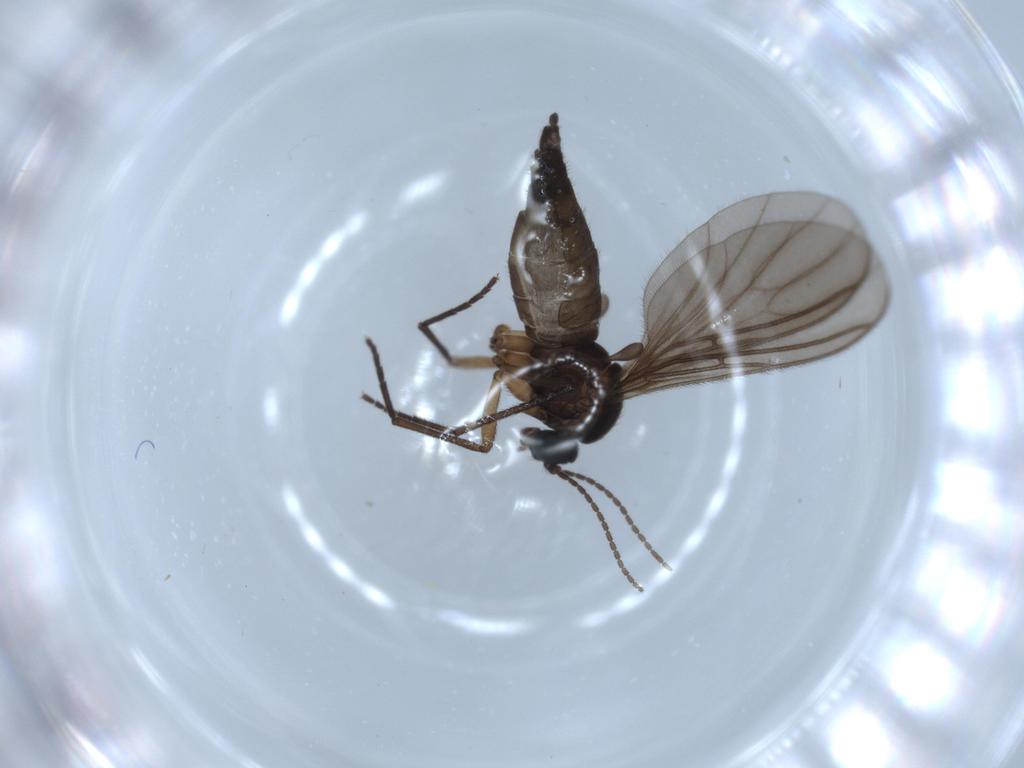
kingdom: Animalia
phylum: Arthropoda
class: Insecta
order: Diptera
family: Sciaridae
